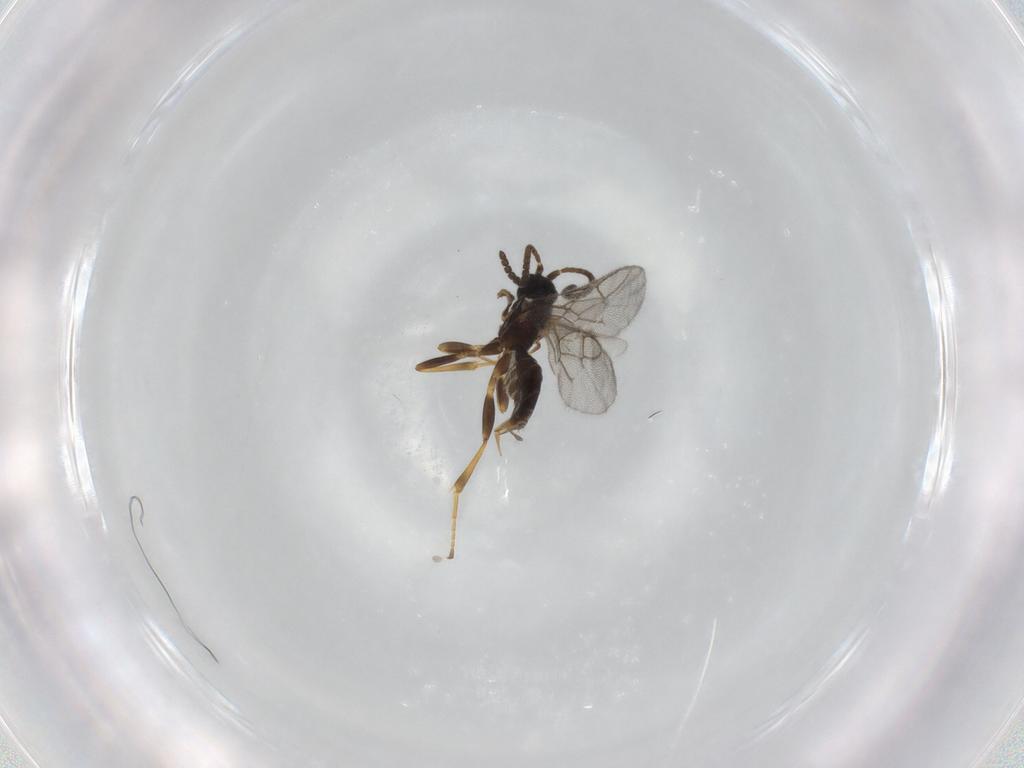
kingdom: Animalia
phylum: Arthropoda
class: Insecta
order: Hymenoptera
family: Ichneumonidae
